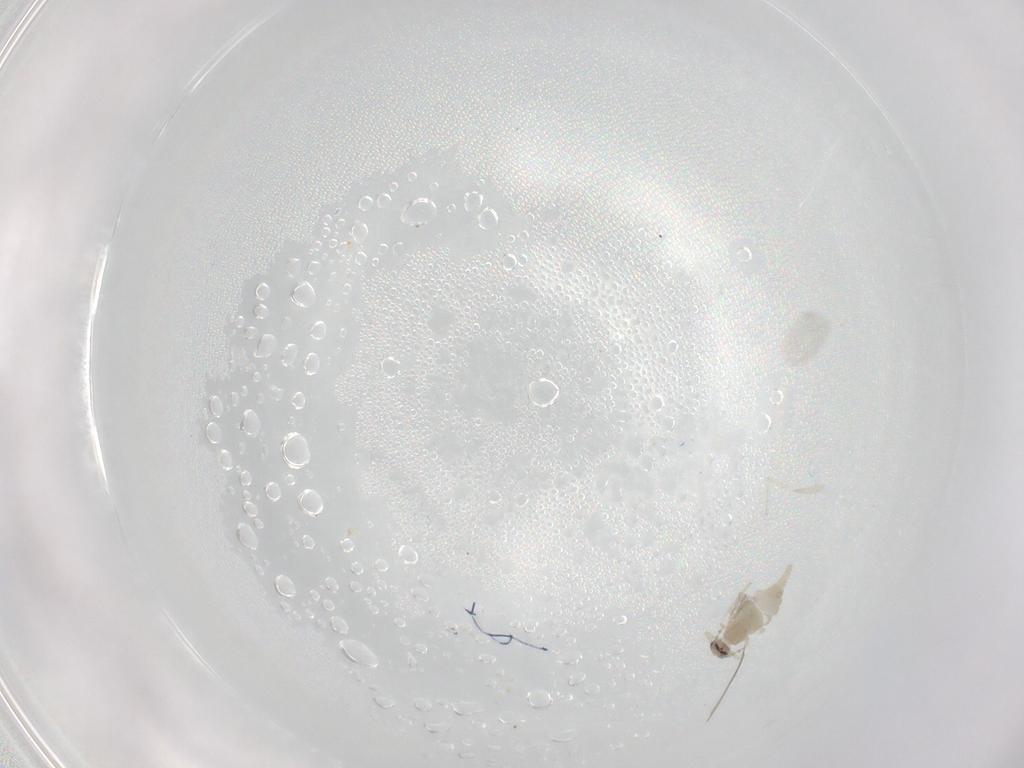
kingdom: Animalia
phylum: Arthropoda
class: Insecta
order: Diptera
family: Cecidomyiidae
